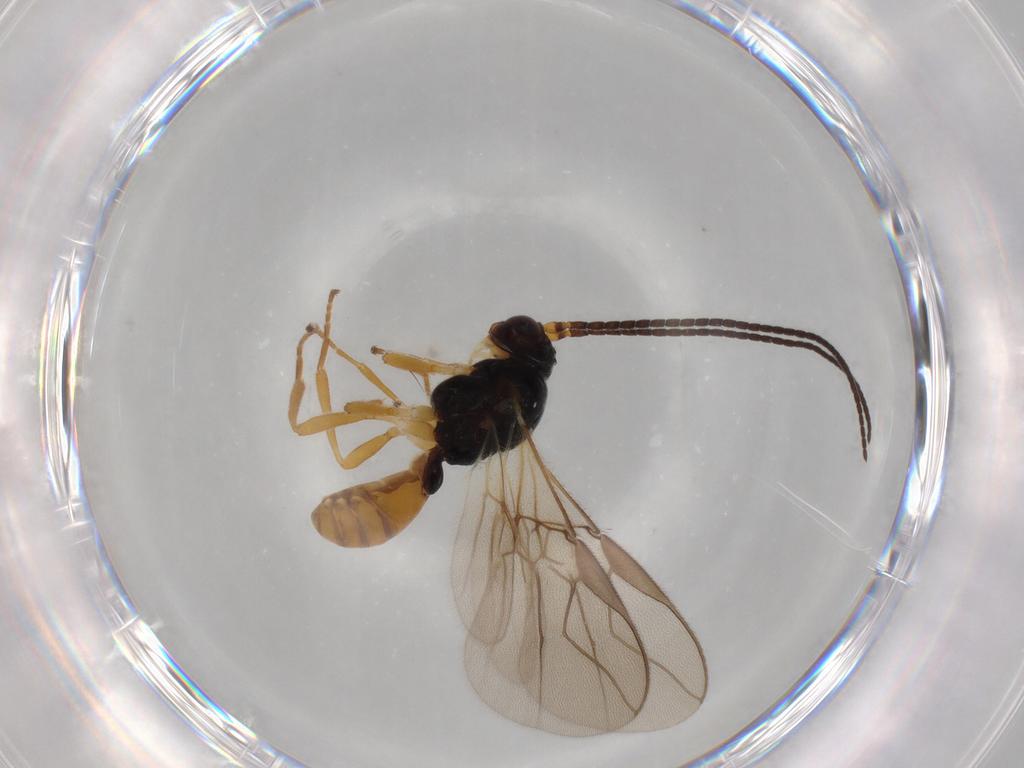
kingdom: Animalia
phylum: Arthropoda
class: Insecta
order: Hymenoptera
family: Braconidae
